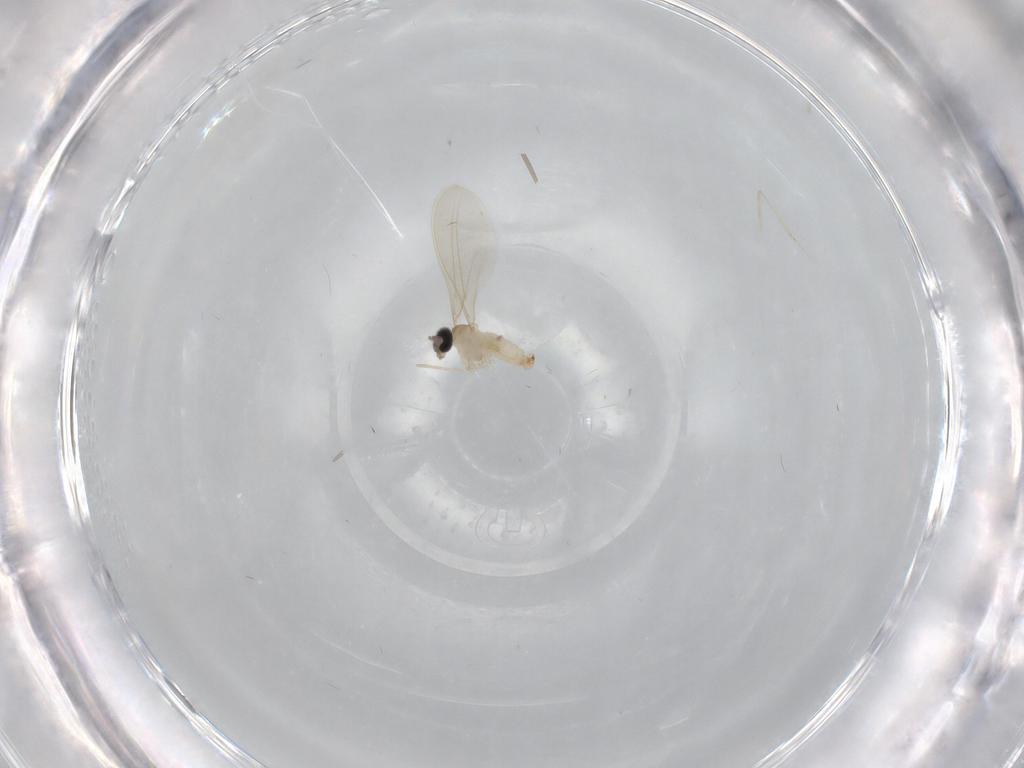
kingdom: Animalia
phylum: Arthropoda
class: Insecta
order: Diptera
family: Cecidomyiidae
